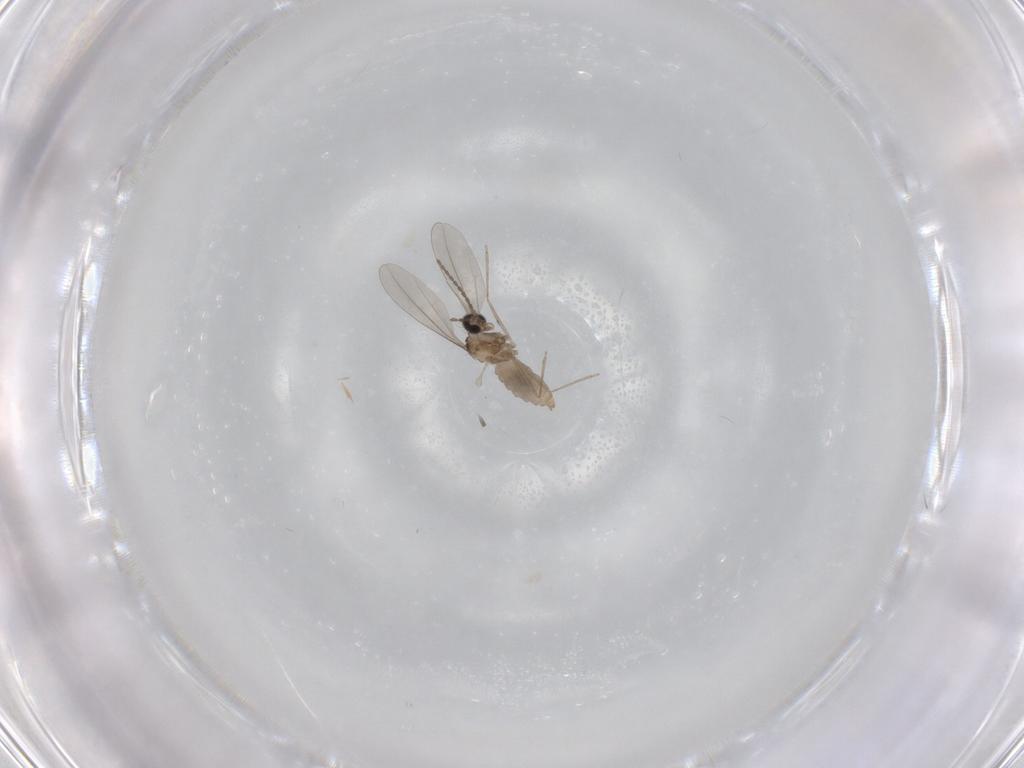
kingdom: Animalia
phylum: Arthropoda
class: Insecta
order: Diptera
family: Cecidomyiidae
